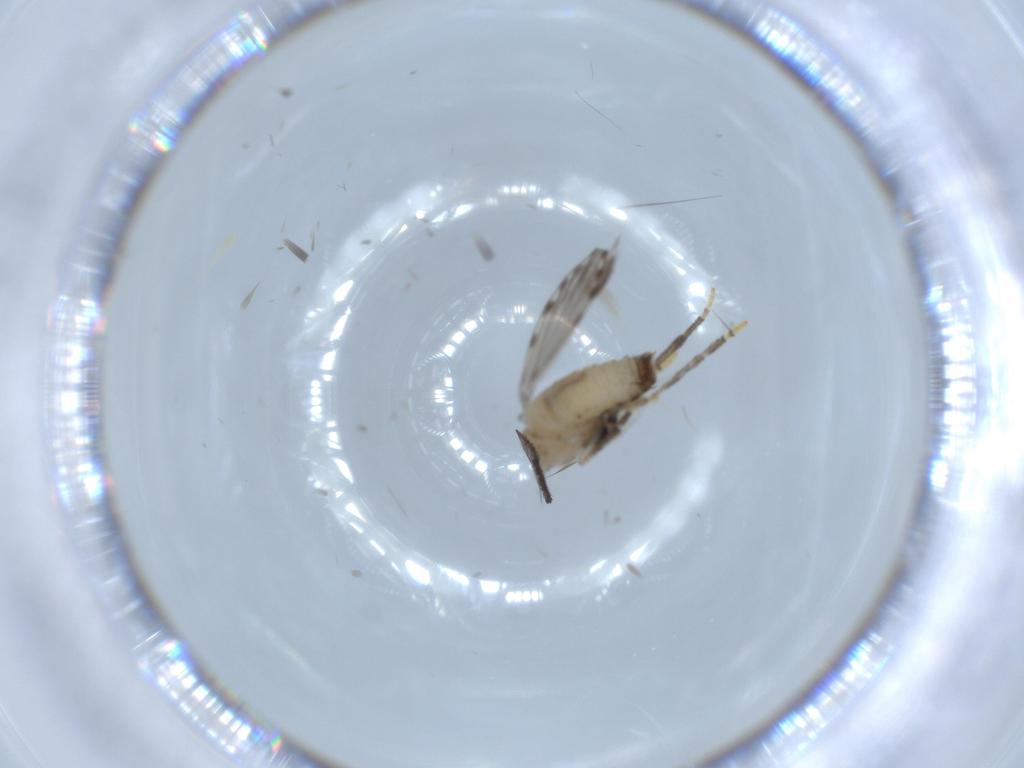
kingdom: Animalia
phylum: Arthropoda
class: Insecta
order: Diptera
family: Psychodidae
